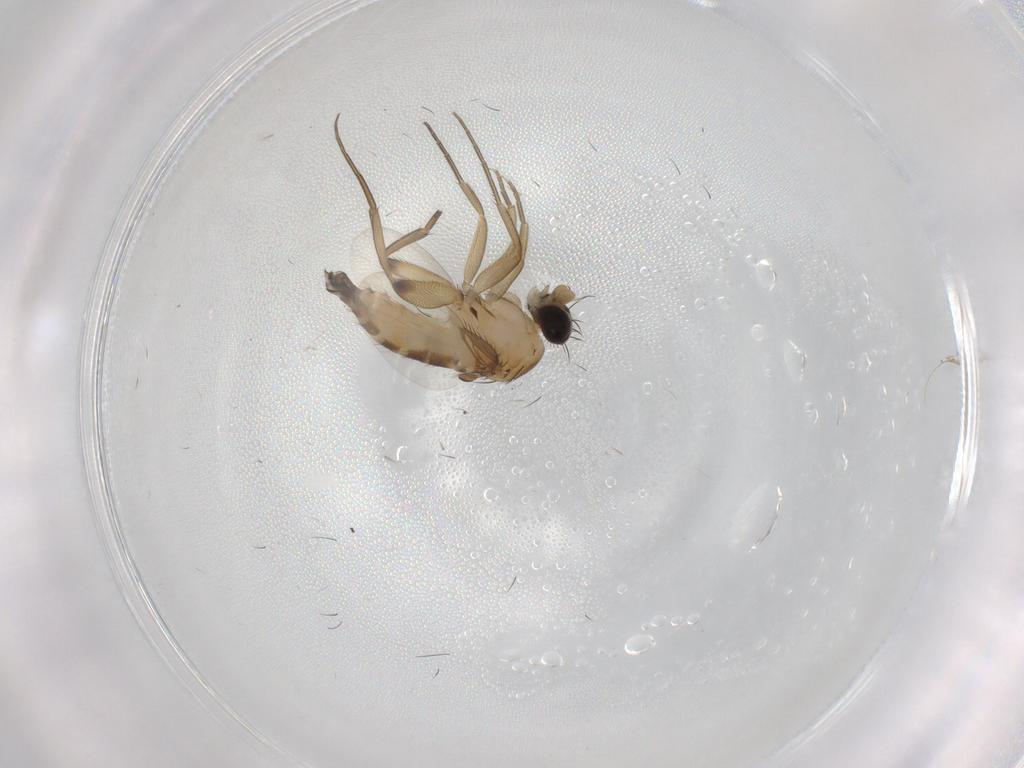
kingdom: Animalia
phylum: Arthropoda
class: Insecta
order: Diptera
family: Phoridae
